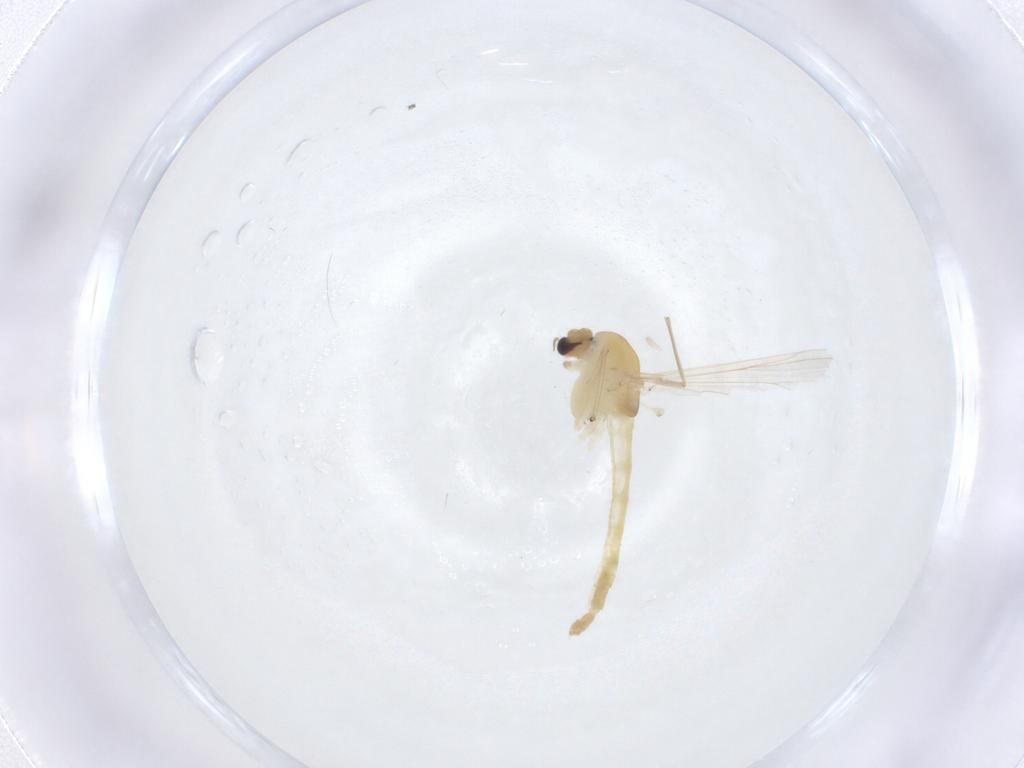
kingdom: Animalia
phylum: Arthropoda
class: Insecta
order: Diptera
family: Chironomidae
